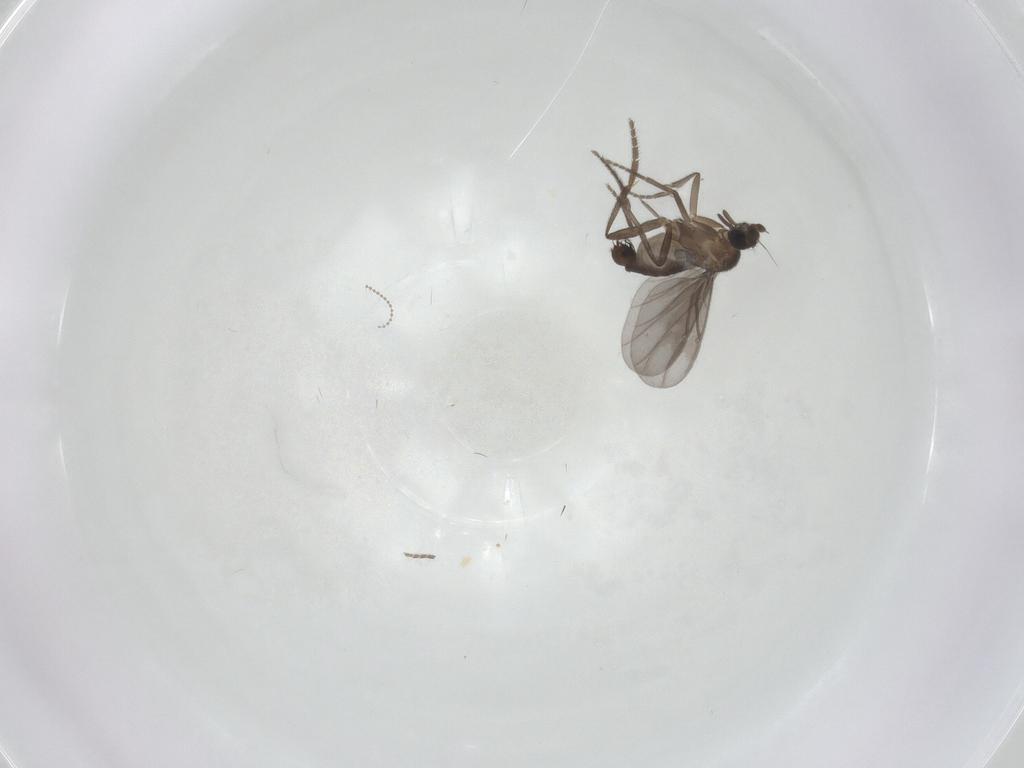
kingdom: Animalia
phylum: Arthropoda
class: Insecta
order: Diptera
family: Phoridae
